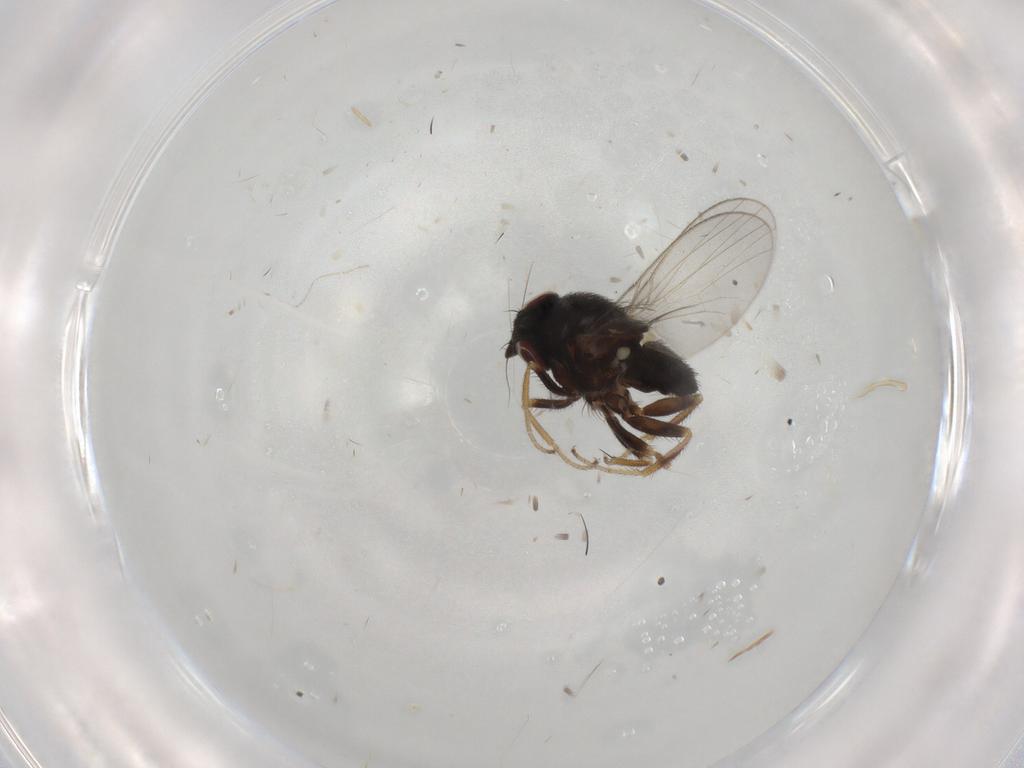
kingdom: Animalia
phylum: Arthropoda
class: Insecta
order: Diptera
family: Milichiidae
